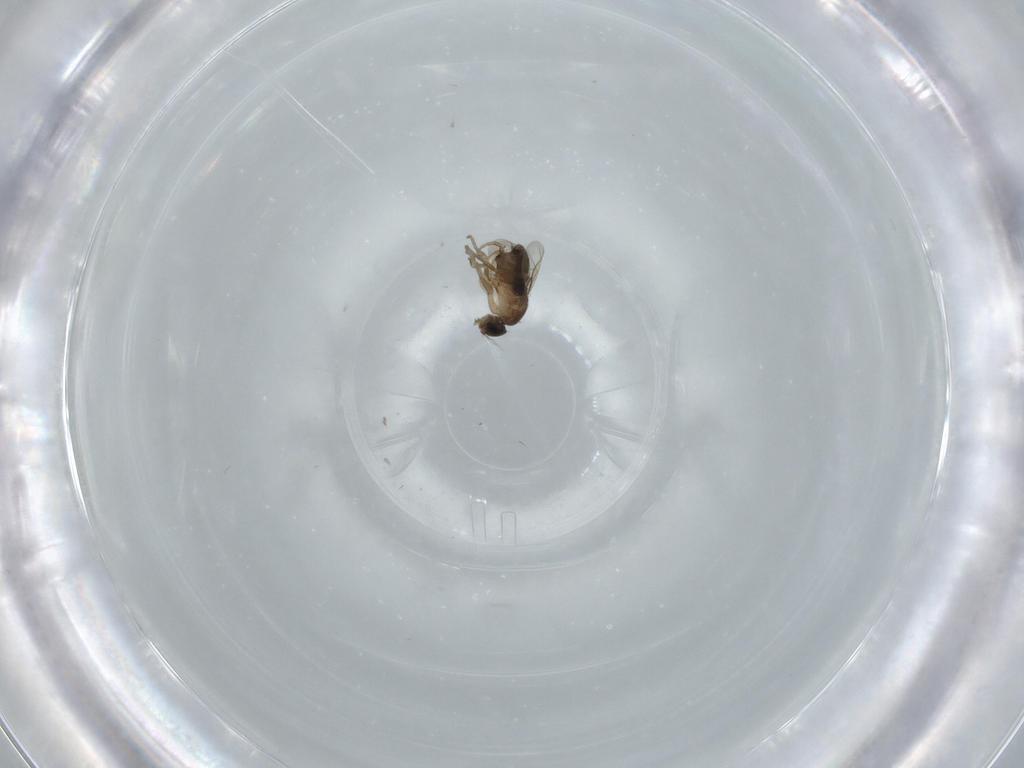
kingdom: Animalia
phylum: Arthropoda
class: Insecta
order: Diptera
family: Phoridae
